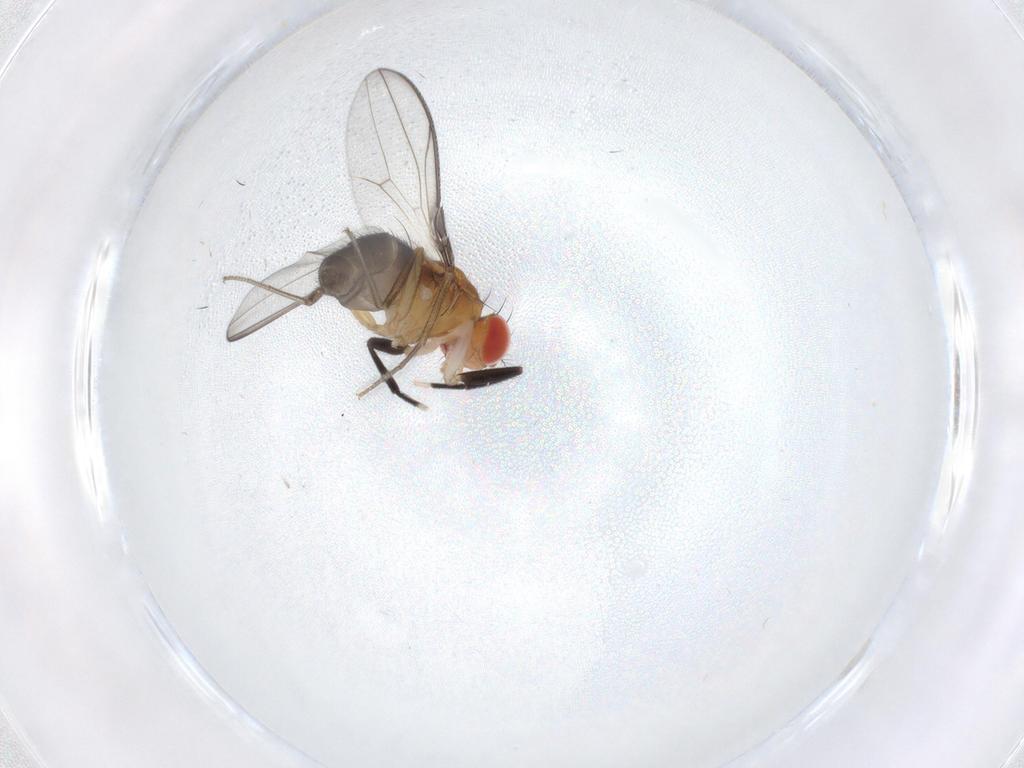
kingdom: Animalia
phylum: Arthropoda
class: Insecta
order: Diptera
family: Drosophilidae
